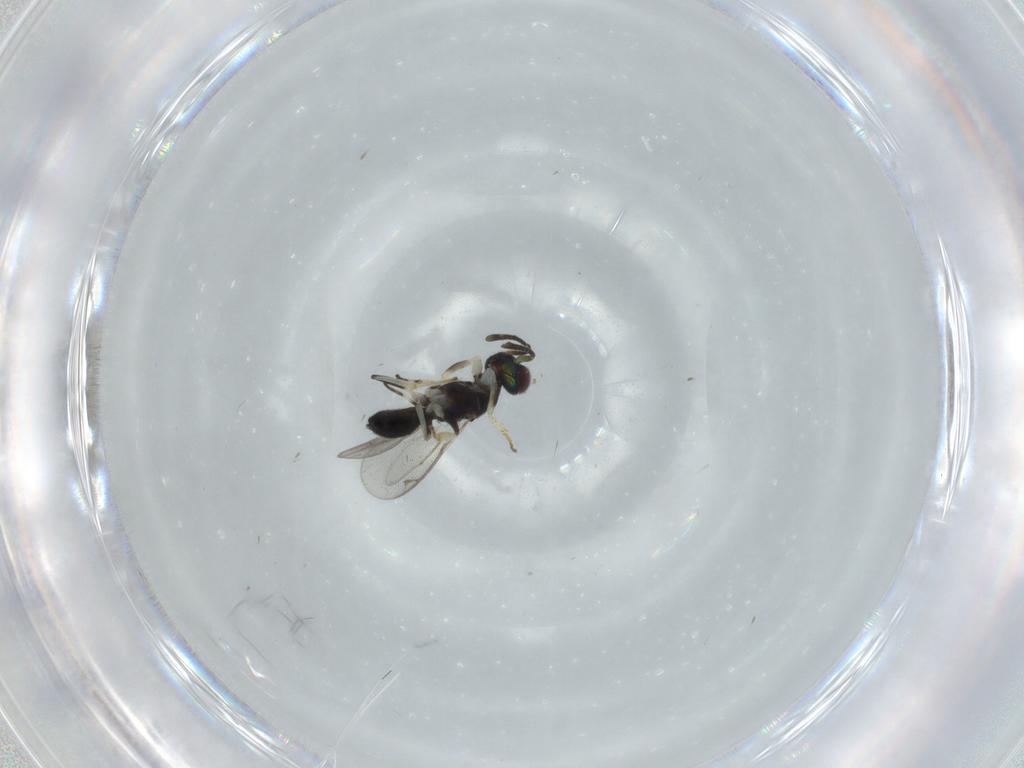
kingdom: Animalia
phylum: Arthropoda
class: Insecta
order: Hymenoptera
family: Eupelmidae
